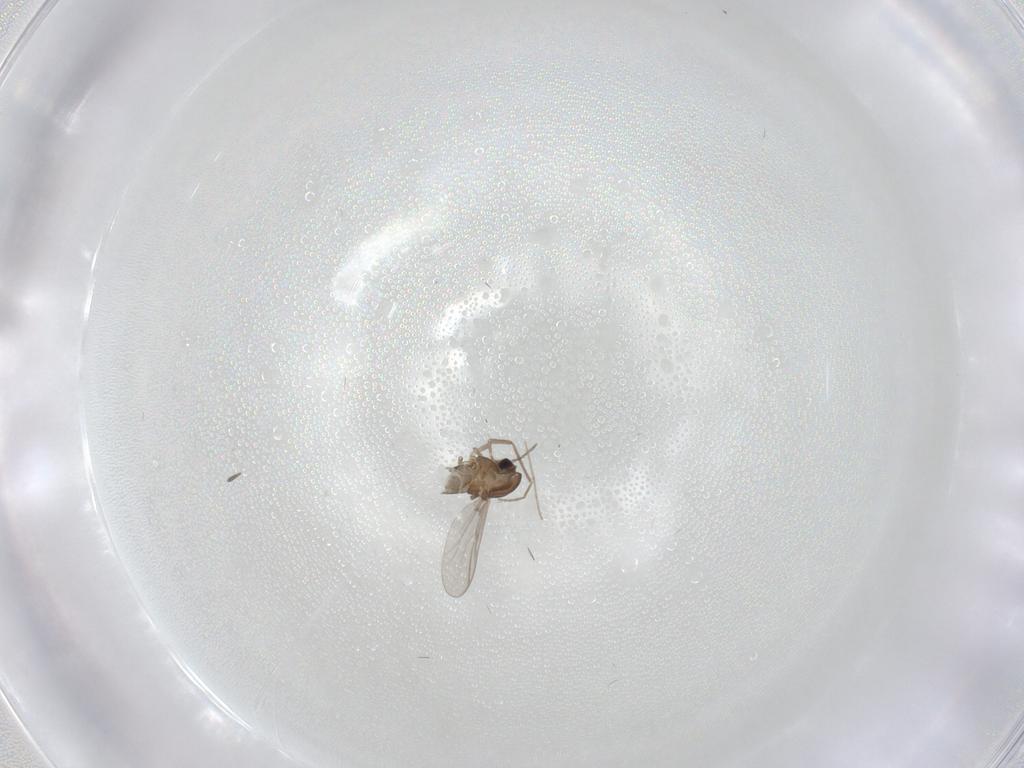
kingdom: Animalia
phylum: Arthropoda
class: Insecta
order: Diptera
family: Chironomidae
